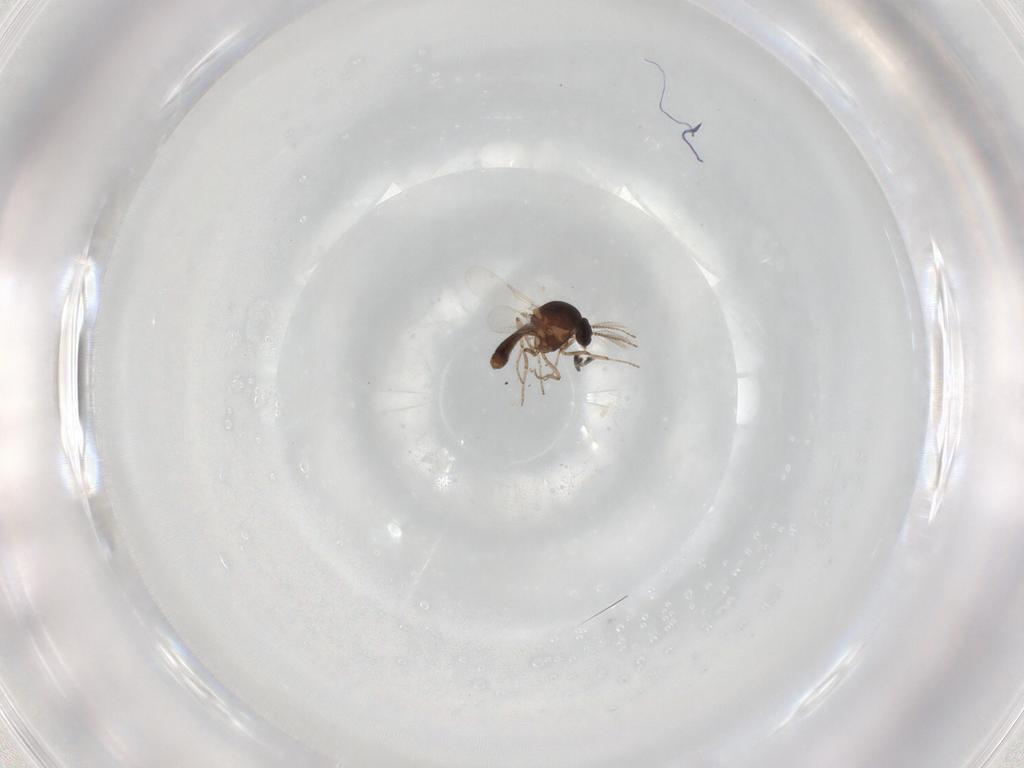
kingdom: Animalia
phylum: Arthropoda
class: Insecta
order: Diptera
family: Ceratopogonidae
